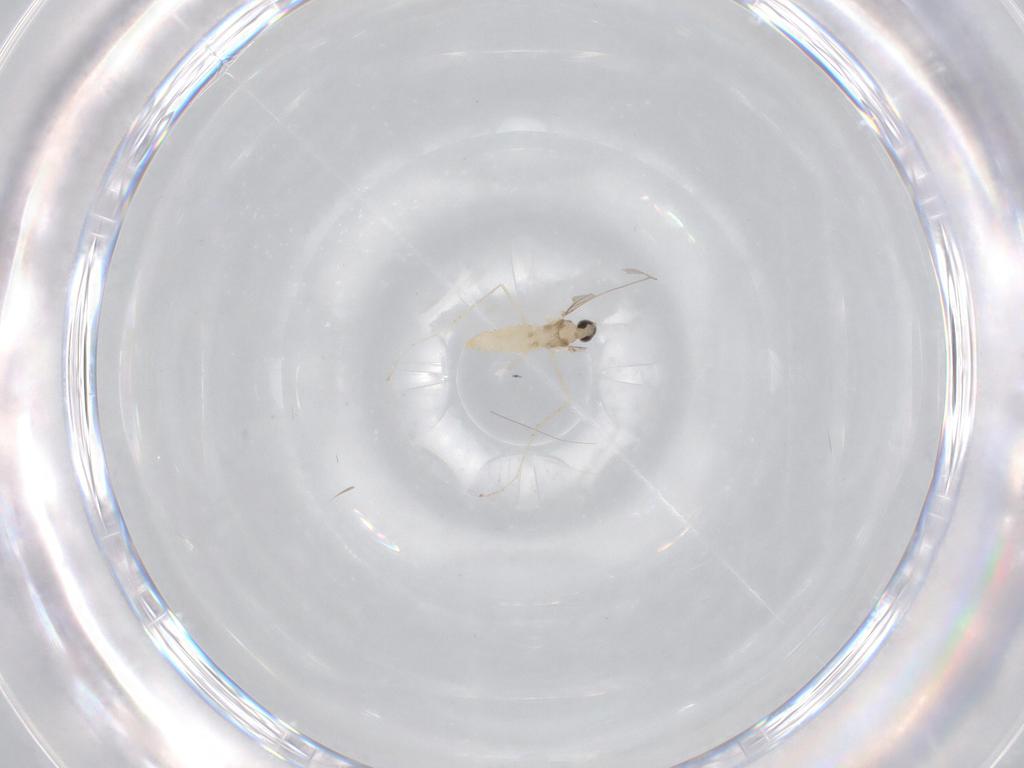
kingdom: Animalia
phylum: Arthropoda
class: Insecta
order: Diptera
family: Cecidomyiidae
